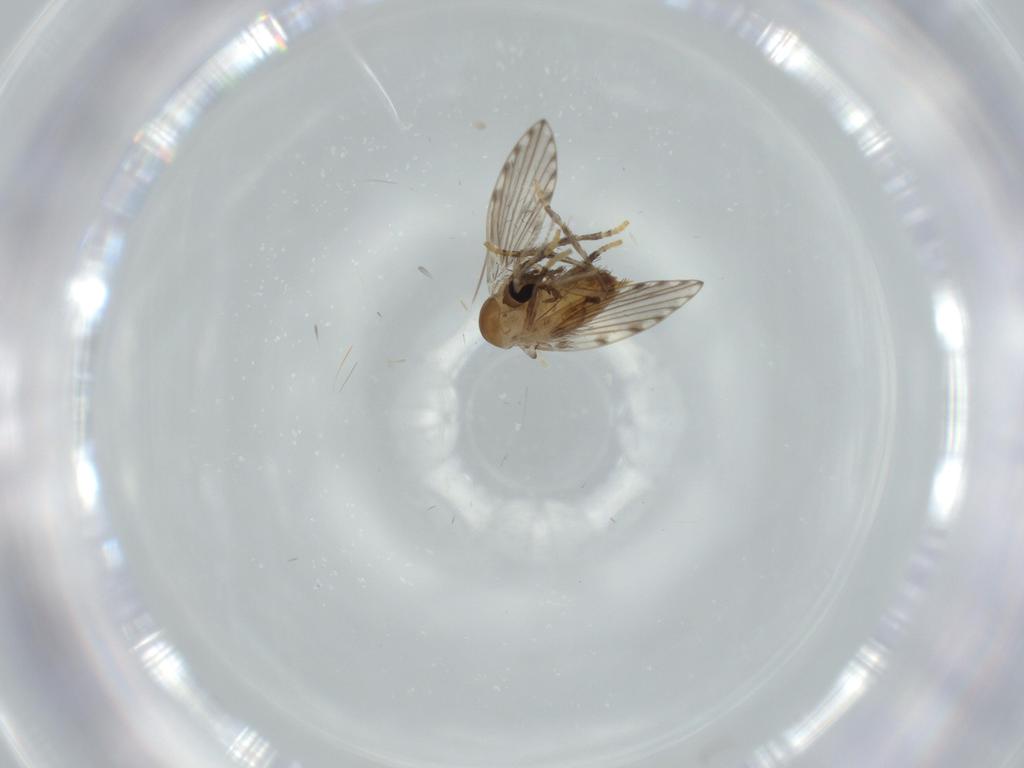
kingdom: Animalia
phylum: Arthropoda
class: Insecta
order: Diptera
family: Psychodidae
